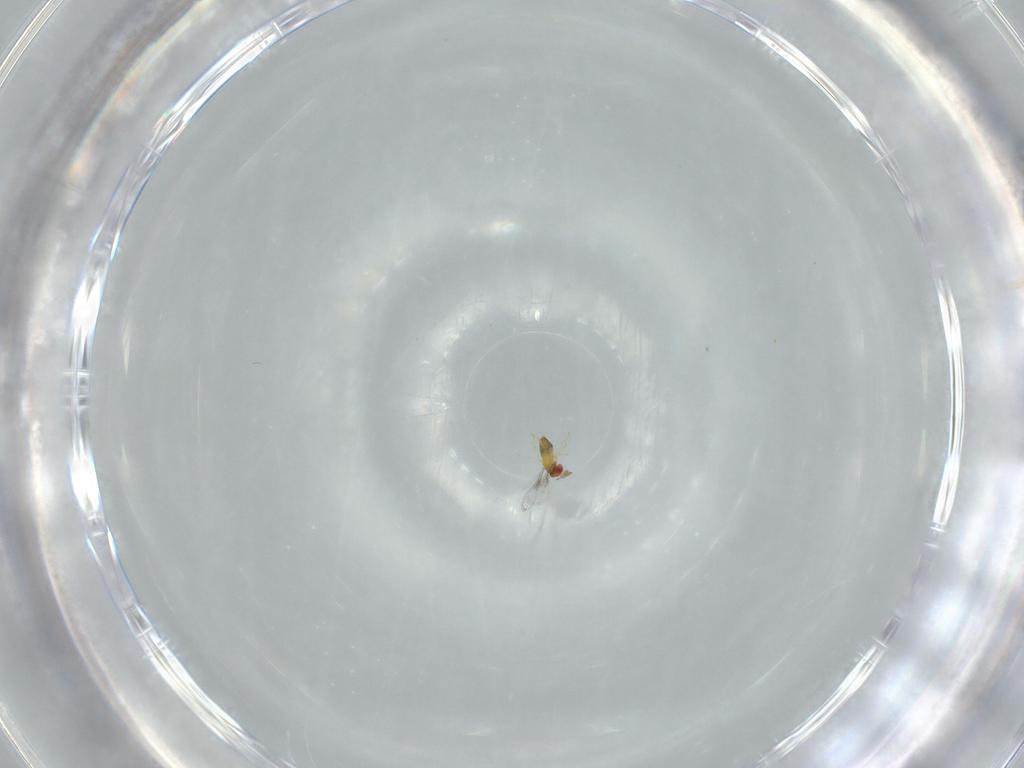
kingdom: Animalia
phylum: Arthropoda
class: Insecta
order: Hymenoptera
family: Trichogrammatidae
